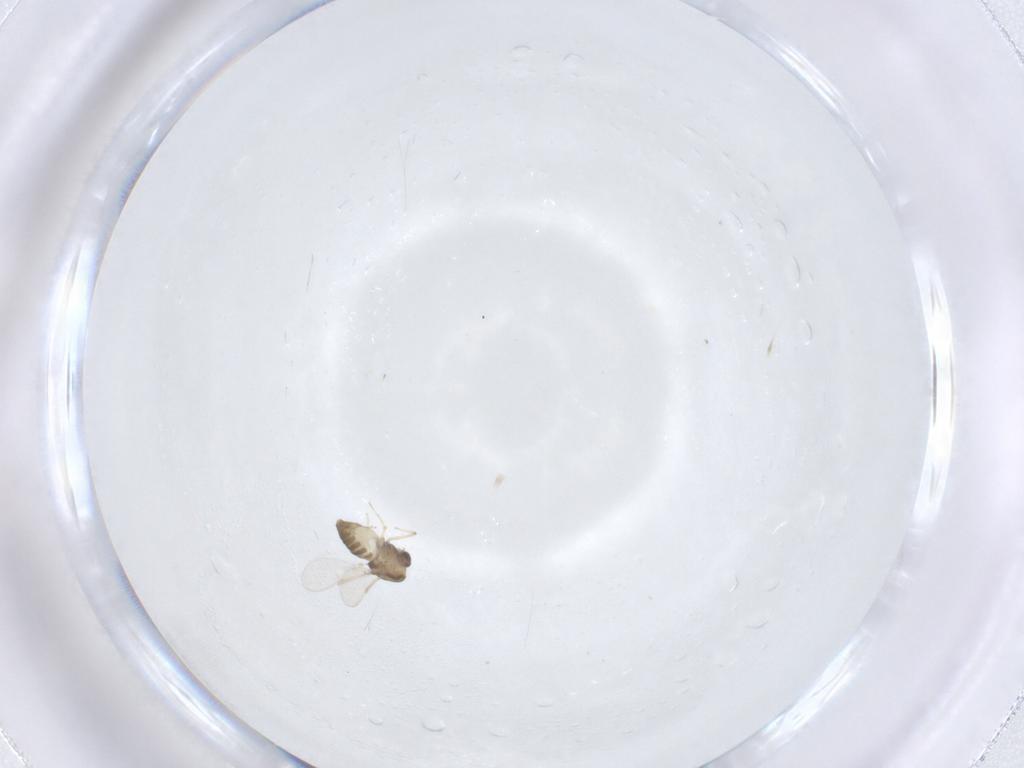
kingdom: Animalia
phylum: Arthropoda
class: Insecta
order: Diptera
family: Chironomidae
